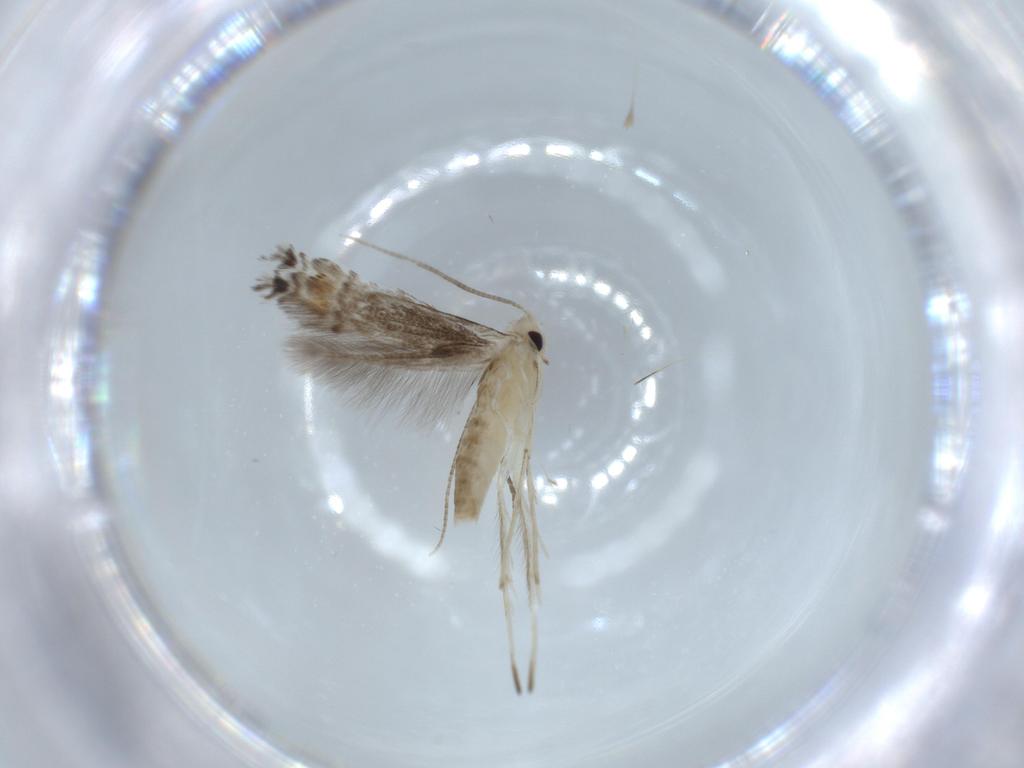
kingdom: Animalia
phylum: Arthropoda
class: Insecta
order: Lepidoptera
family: Gracillariidae
